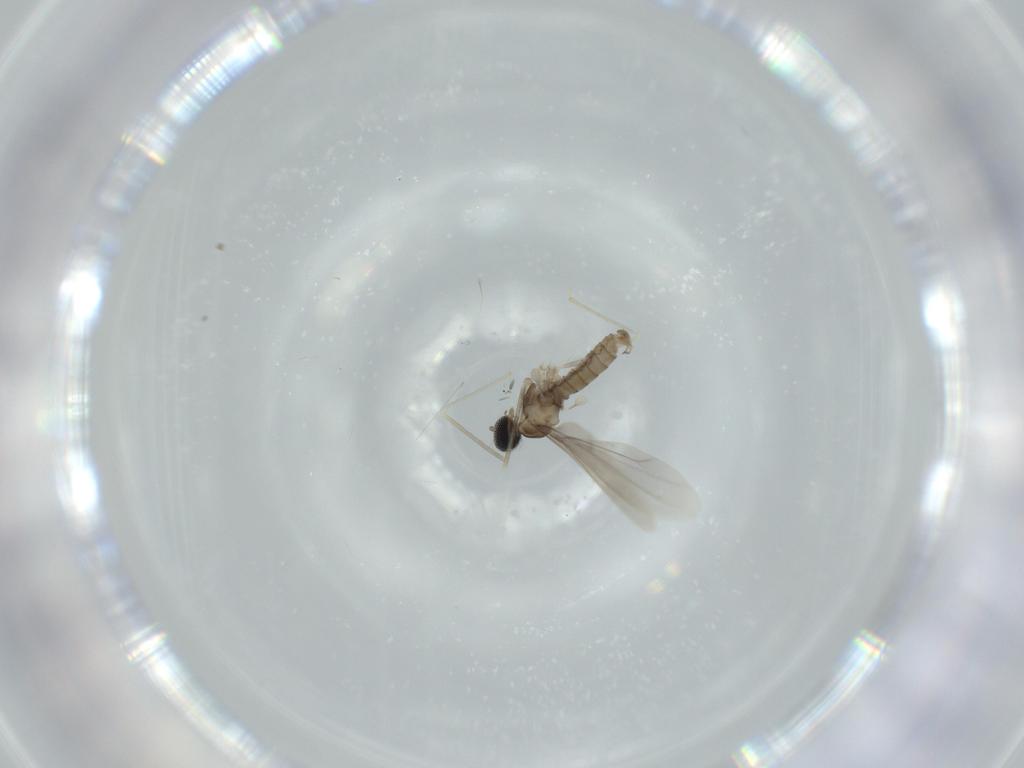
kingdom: Animalia
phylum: Arthropoda
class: Insecta
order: Diptera
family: Cecidomyiidae
